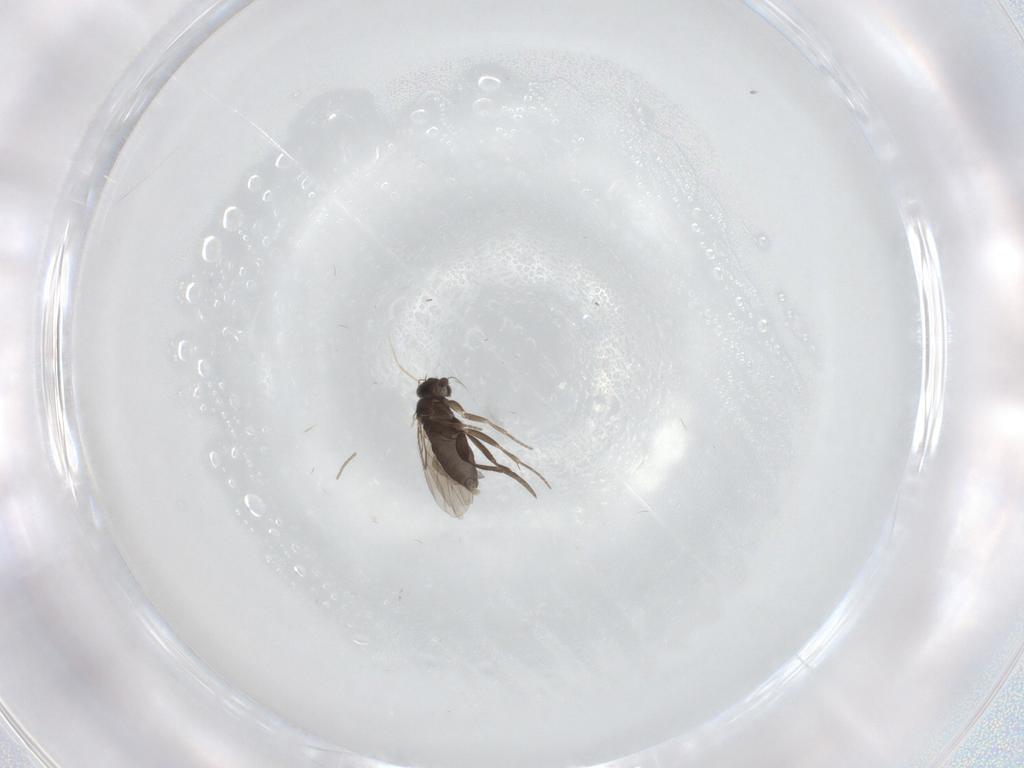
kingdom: Animalia
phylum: Arthropoda
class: Insecta
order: Diptera
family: Phoridae
